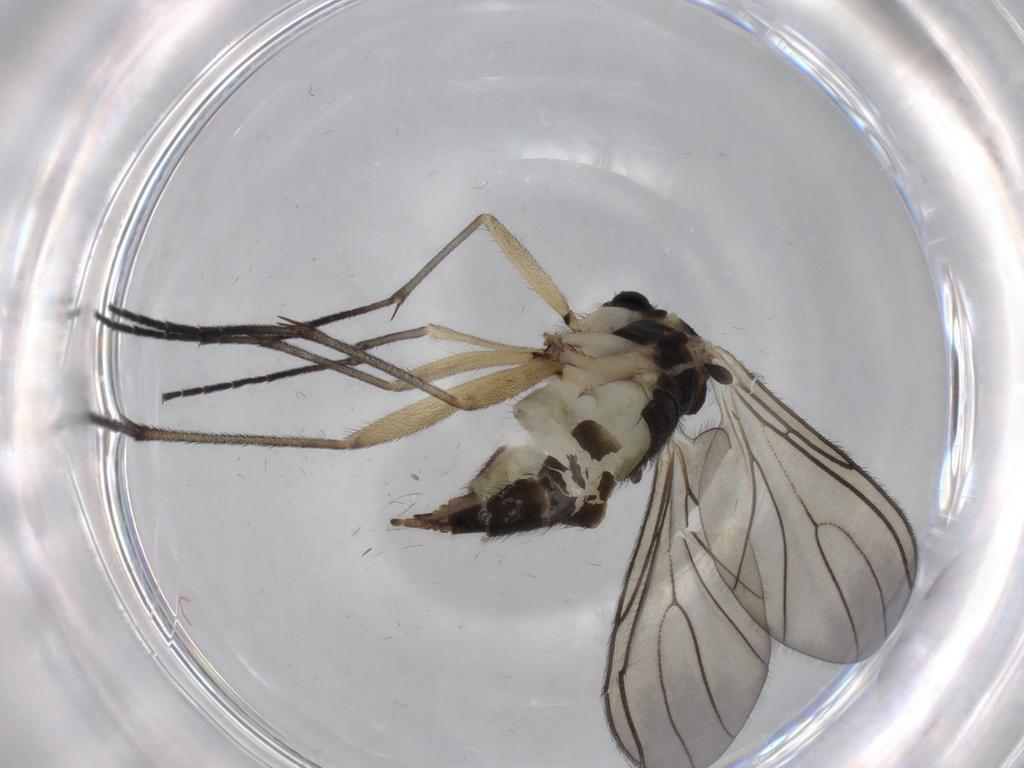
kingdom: Animalia
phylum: Arthropoda
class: Insecta
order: Diptera
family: Sciaridae
